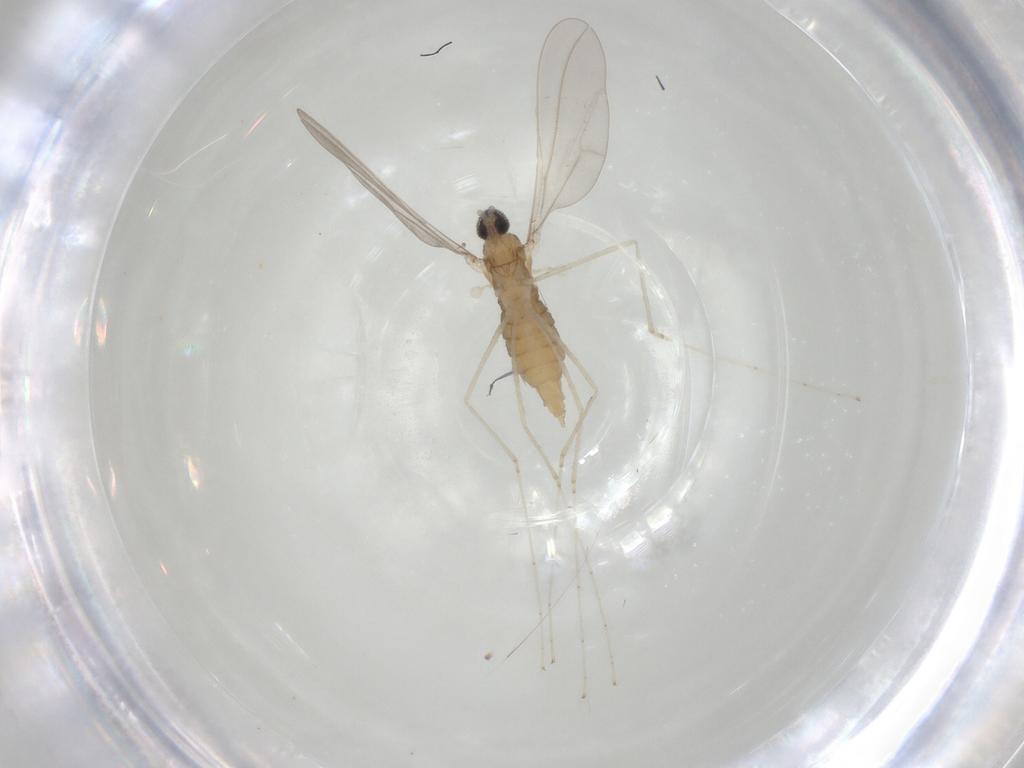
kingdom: Animalia
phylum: Arthropoda
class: Insecta
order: Diptera
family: Cecidomyiidae
